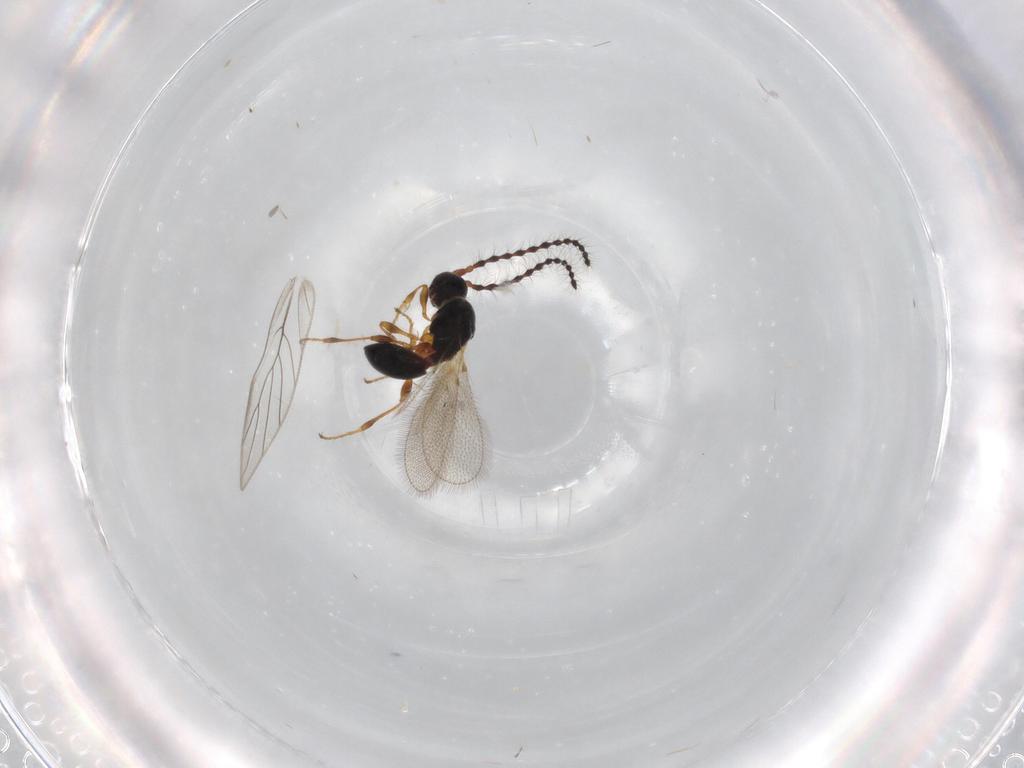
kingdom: Animalia
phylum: Arthropoda
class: Insecta
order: Hymenoptera
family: Diapriidae
